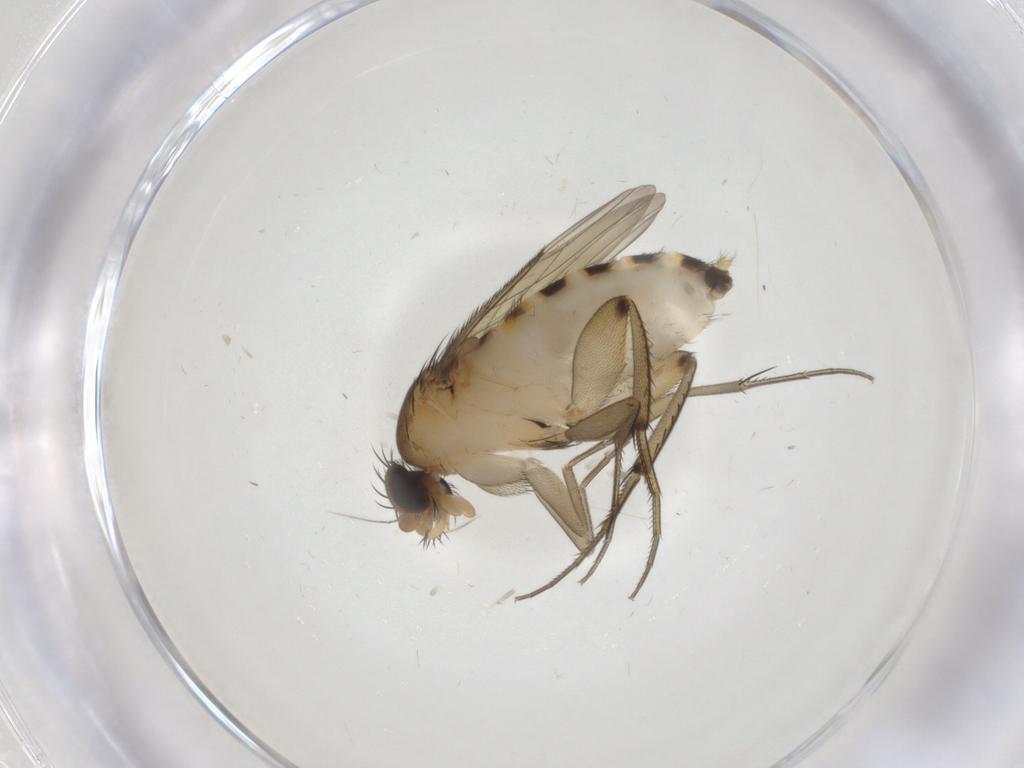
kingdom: Animalia
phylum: Arthropoda
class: Insecta
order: Diptera
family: Phoridae
